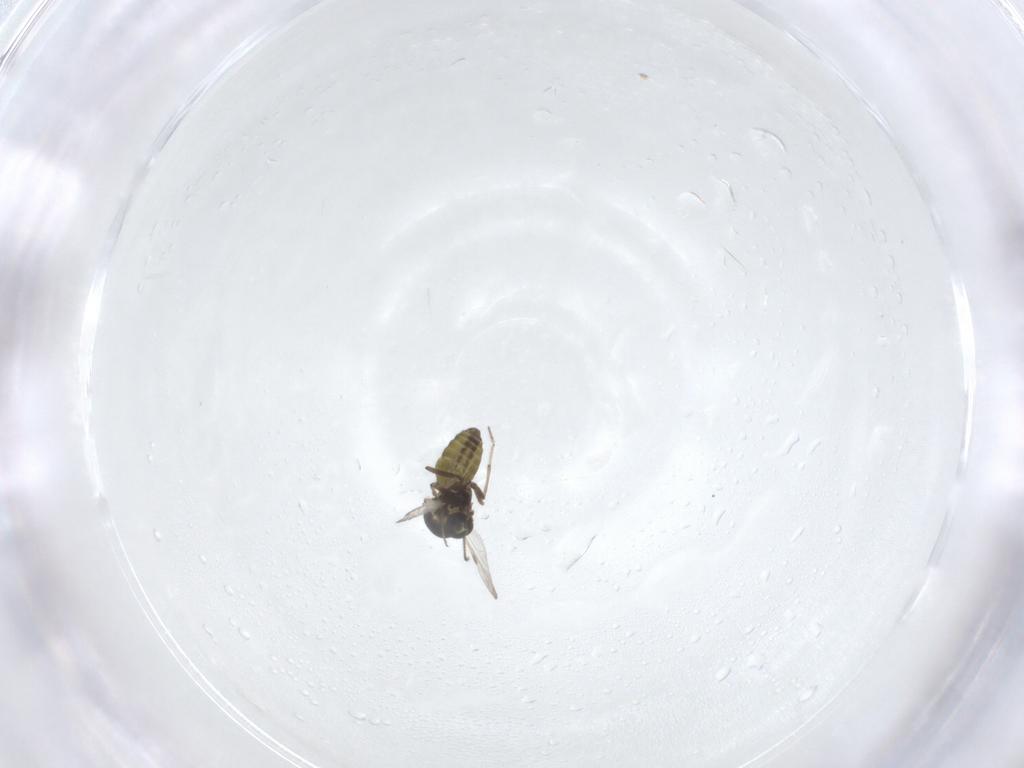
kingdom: Animalia
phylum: Arthropoda
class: Insecta
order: Diptera
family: Ceratopogonidae
